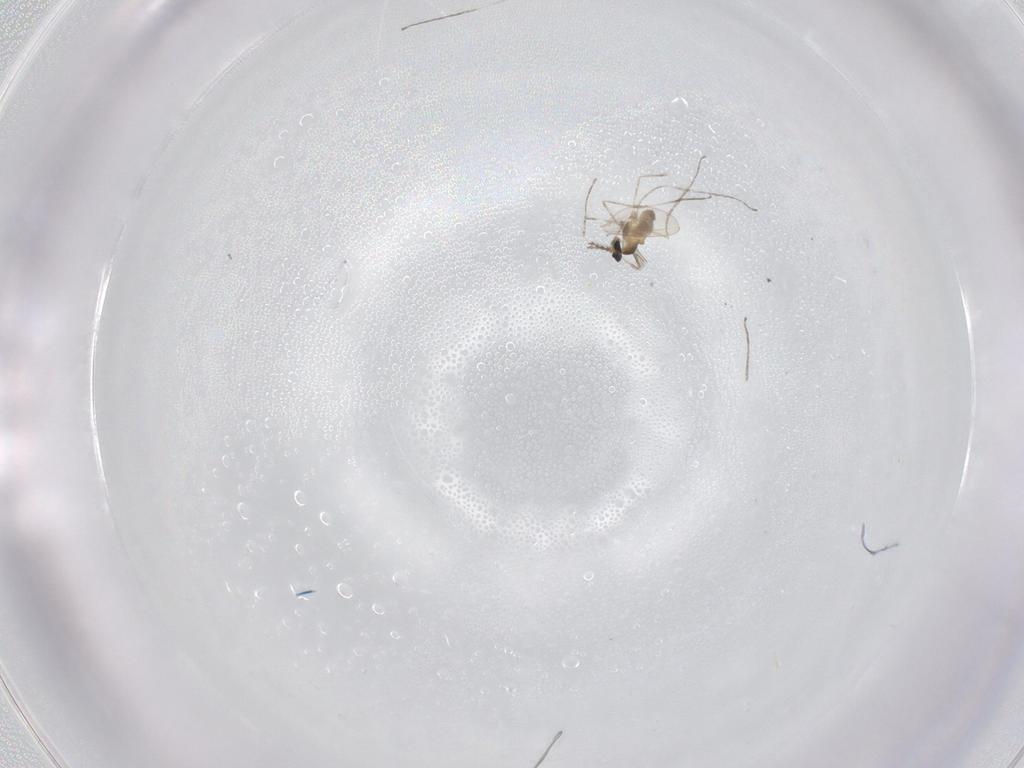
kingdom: Animalia
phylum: Arthropoda
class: Insecta
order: Diptera
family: Cecidomyiidae
